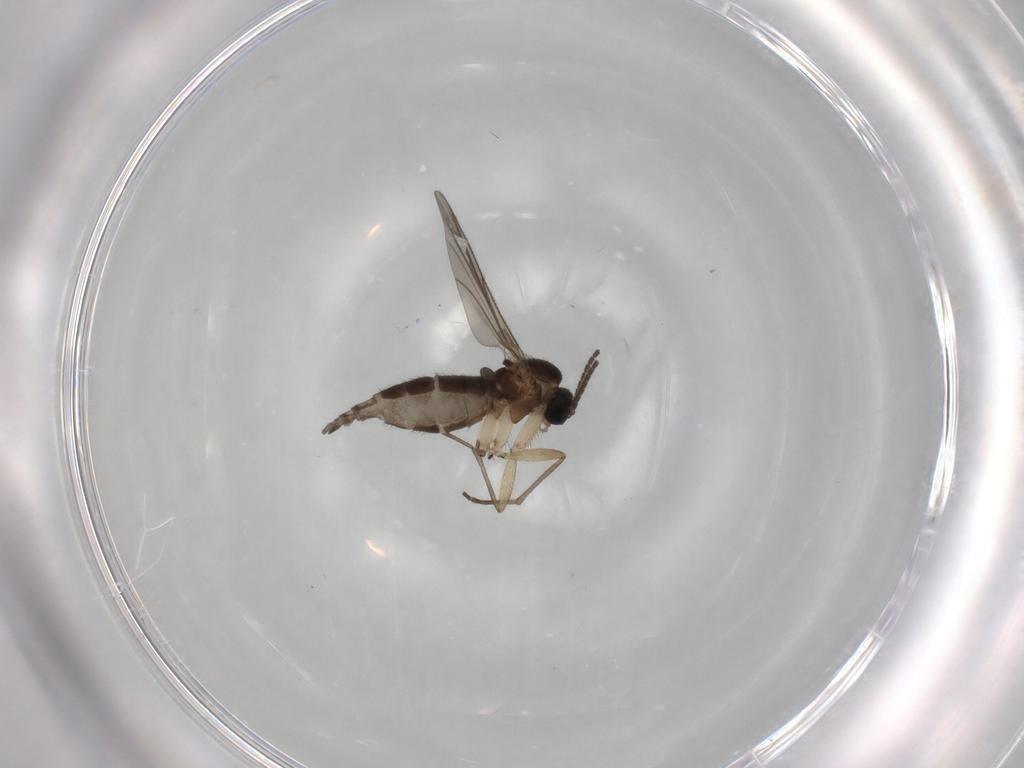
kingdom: Animalia
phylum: Arthropoda
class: Insecta
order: Diptera
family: Sciaridae
